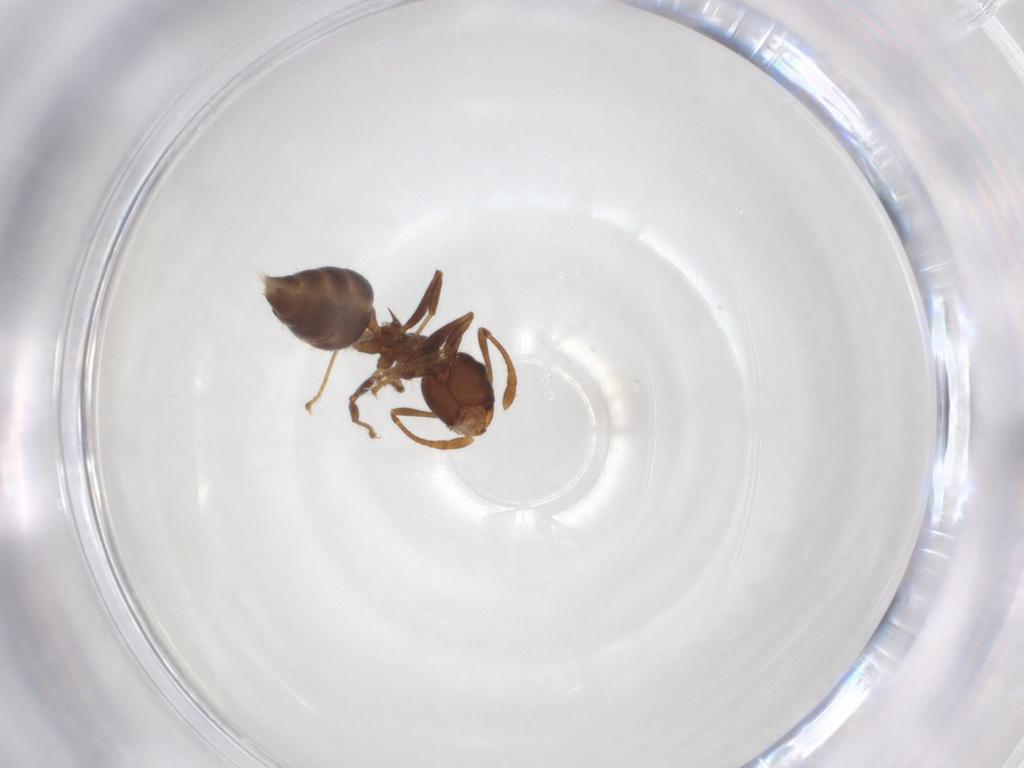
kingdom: Animalia
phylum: Arthropoda
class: Insecta
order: Hymenoptera
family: Formicidae
